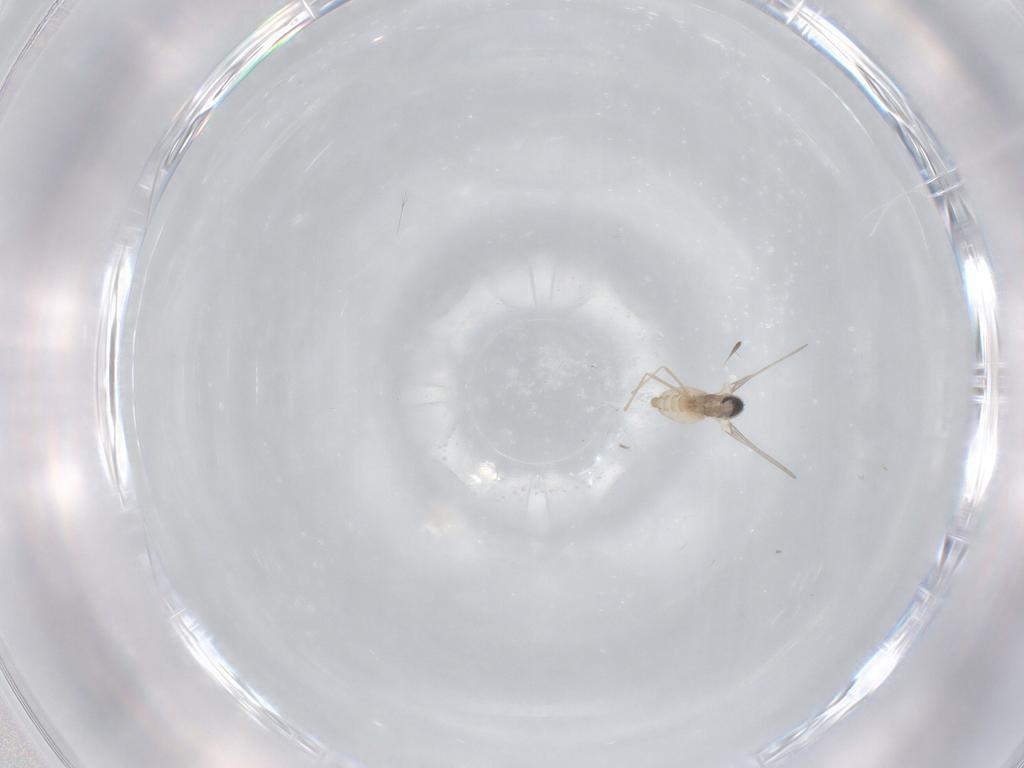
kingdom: Animalia
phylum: Arthropoda
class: Insecta
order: Diptera
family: Cecidomyiidae
